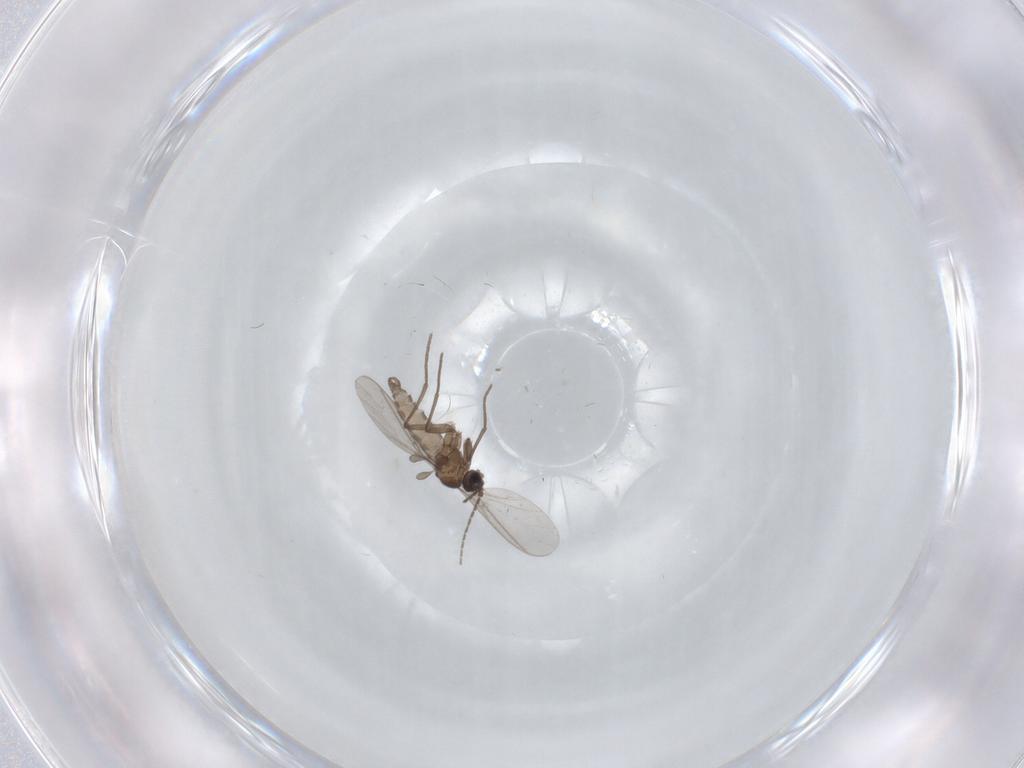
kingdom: Animalia
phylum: Arthropoda
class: Insecta
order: Diptera
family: Sciaridae
